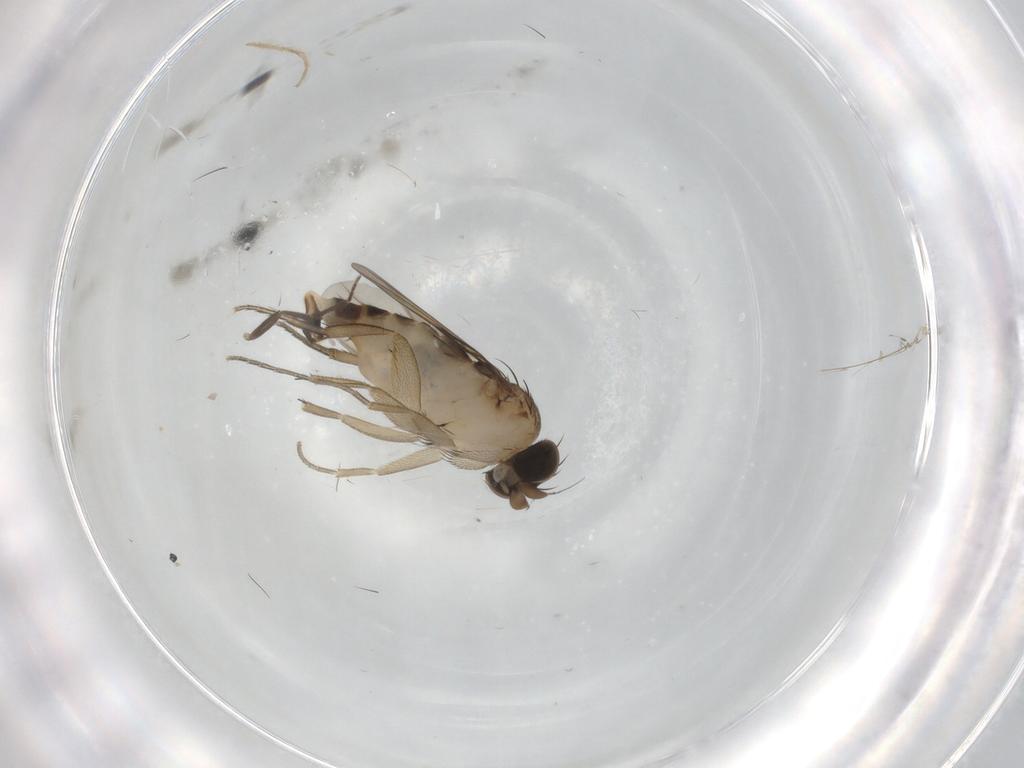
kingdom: Animalia
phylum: Arthropoda
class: Insecta
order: Diptera
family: Phoridae
